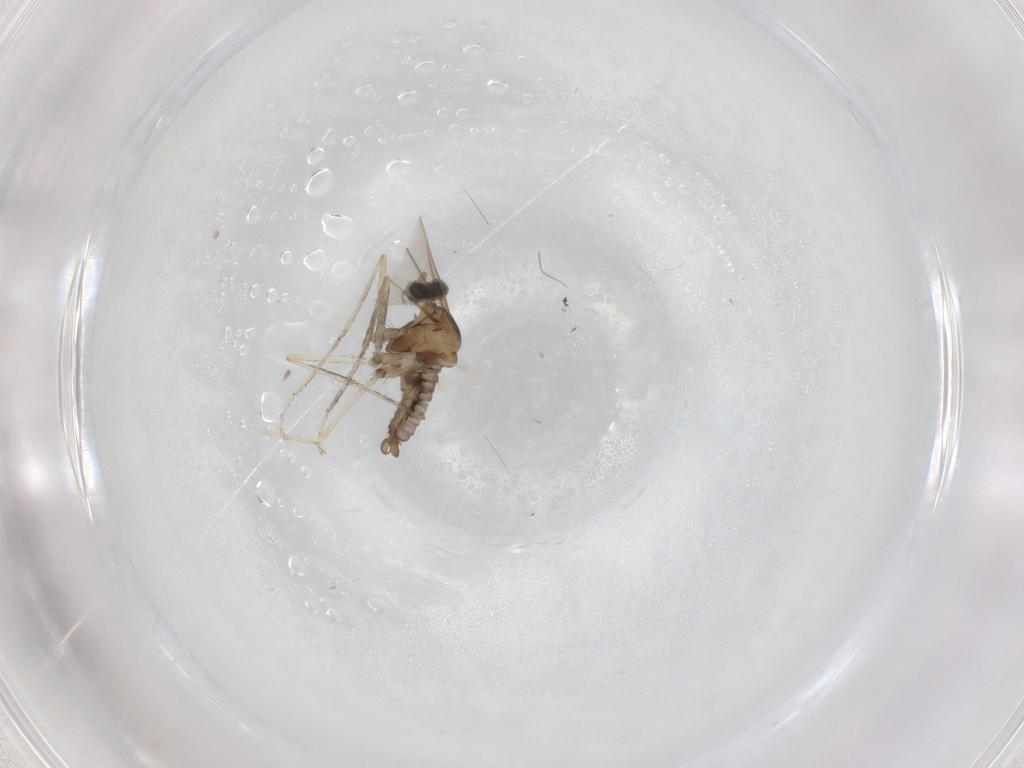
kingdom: Animalia
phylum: Arthropoda
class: Insecta
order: Diptera
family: Cecidomyiidae
